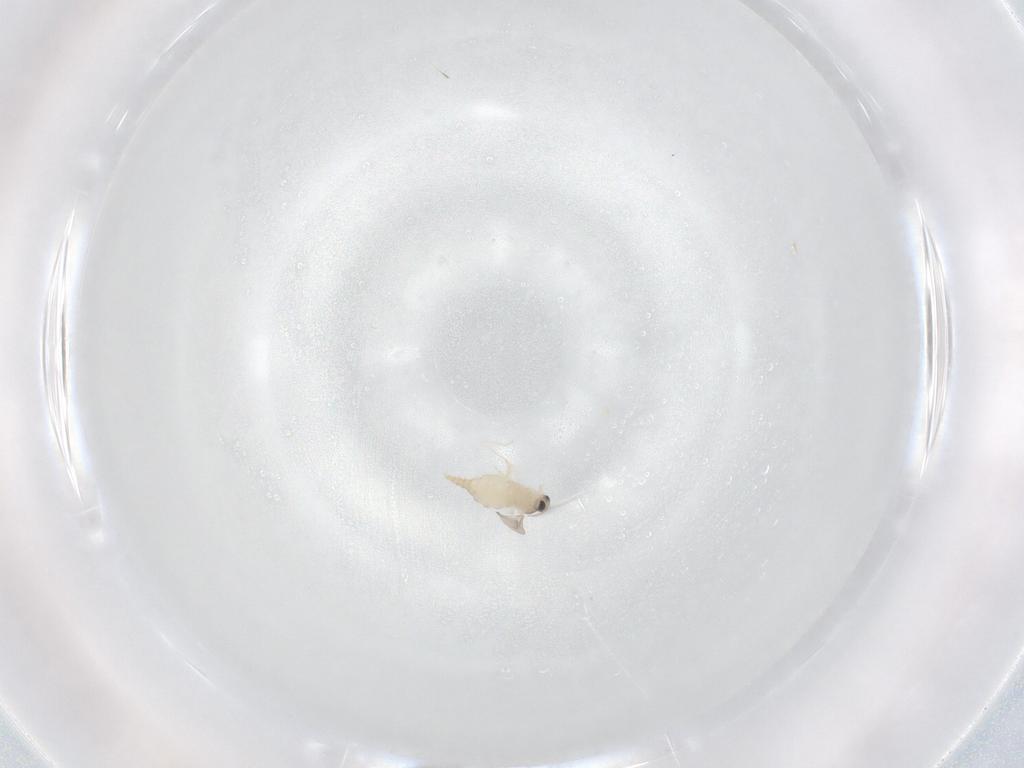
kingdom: Animalia
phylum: Arthropoda
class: Insecta
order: Diptera
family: Cecidomyiidae
